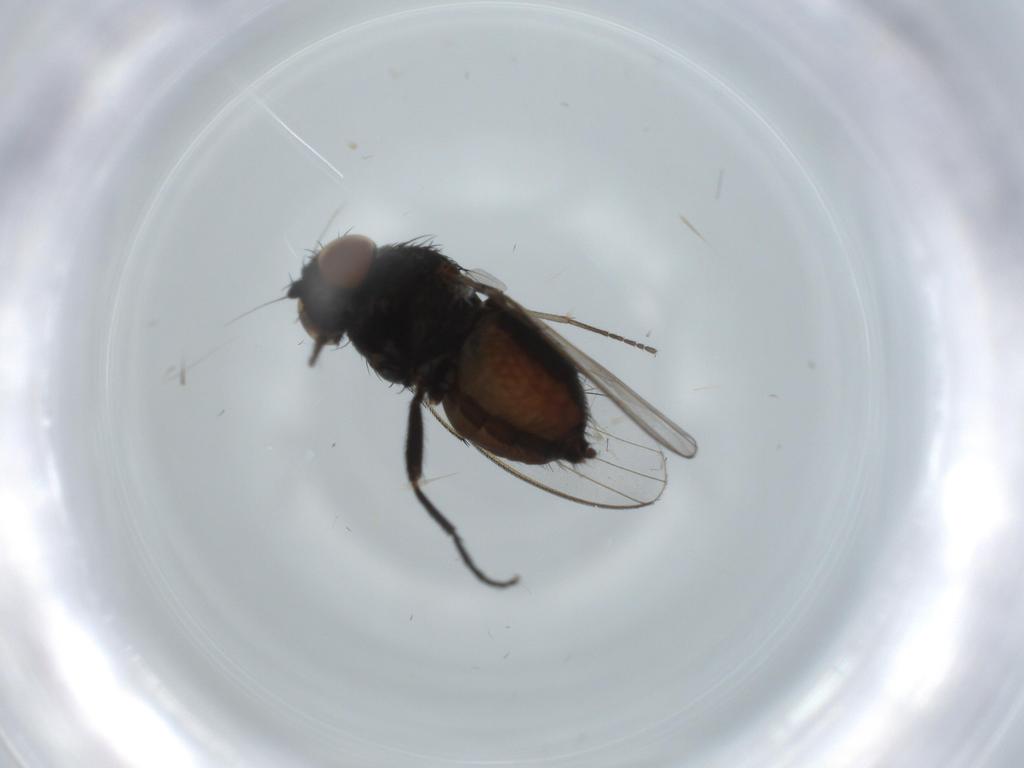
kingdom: Animalia
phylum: Arthropoda
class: Insecta
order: Diptera
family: Milichiidae
